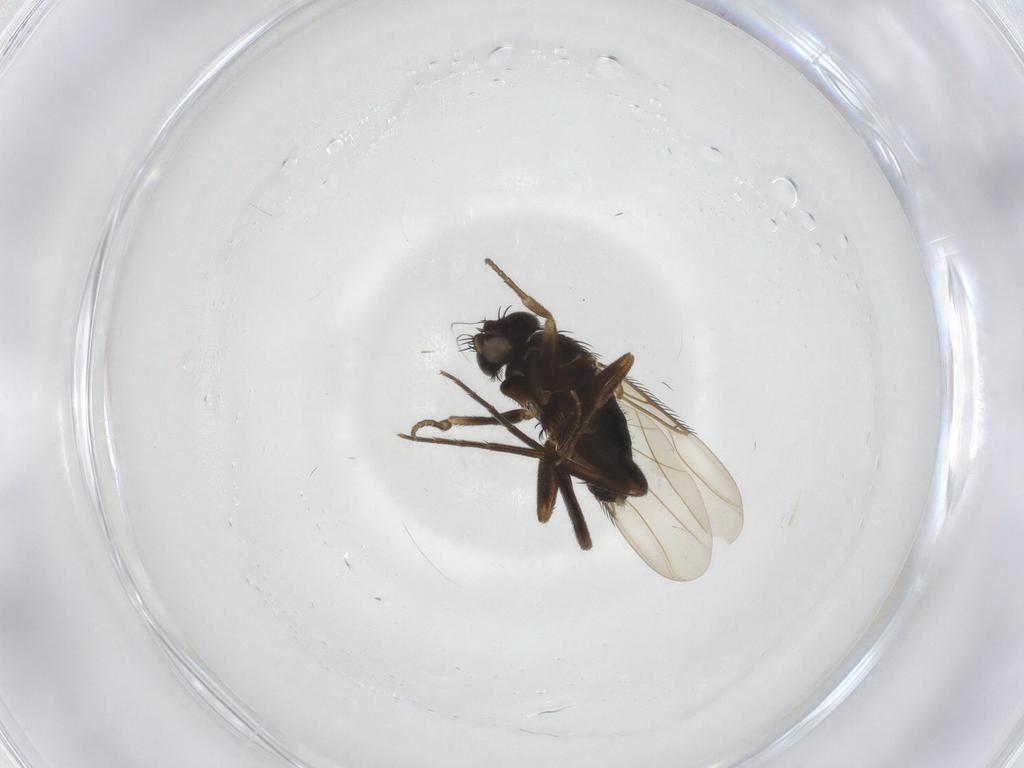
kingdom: Animalia
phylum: Arthropoda
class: Insecta
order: Diptera
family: Phoridae
